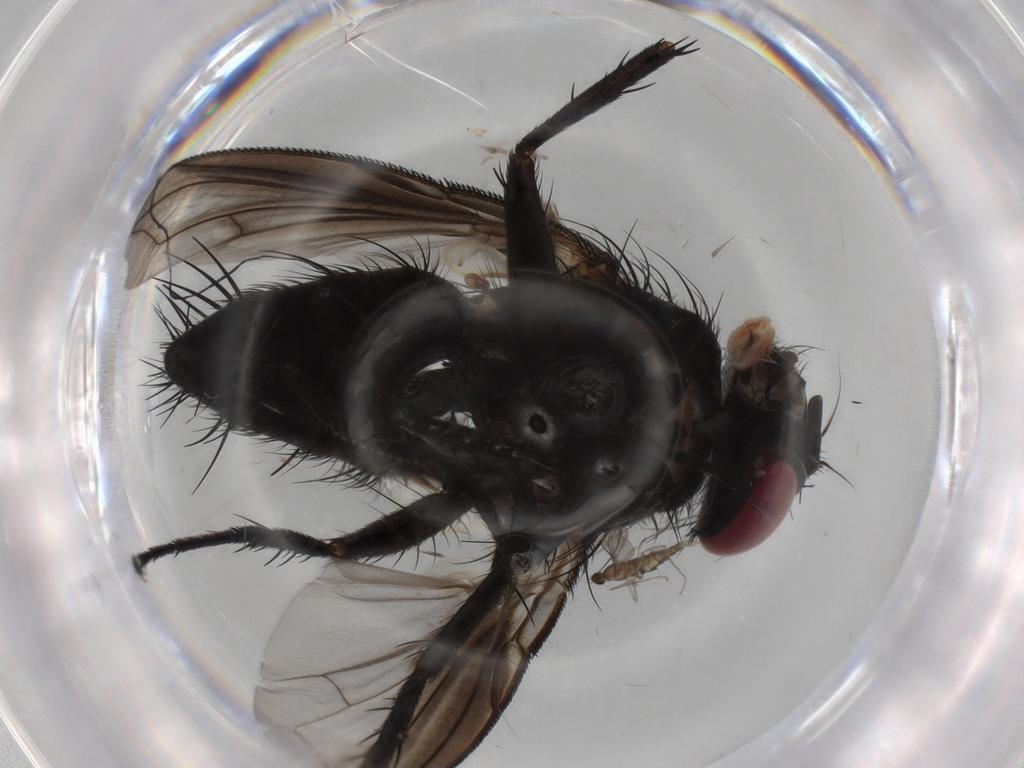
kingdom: Animalia
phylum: Arthropoda
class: Insecta
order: Diptera
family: Tachinidae
